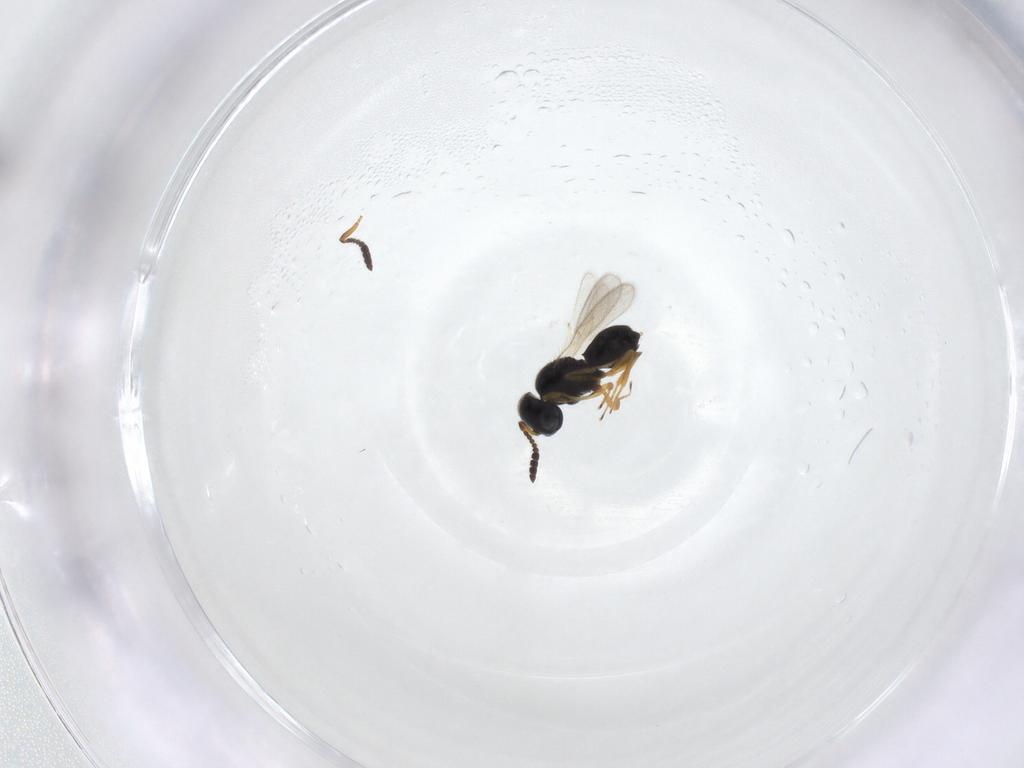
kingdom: Animalia
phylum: Arthropoda
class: Insecta
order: Hymenoptera
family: Scelionidae
